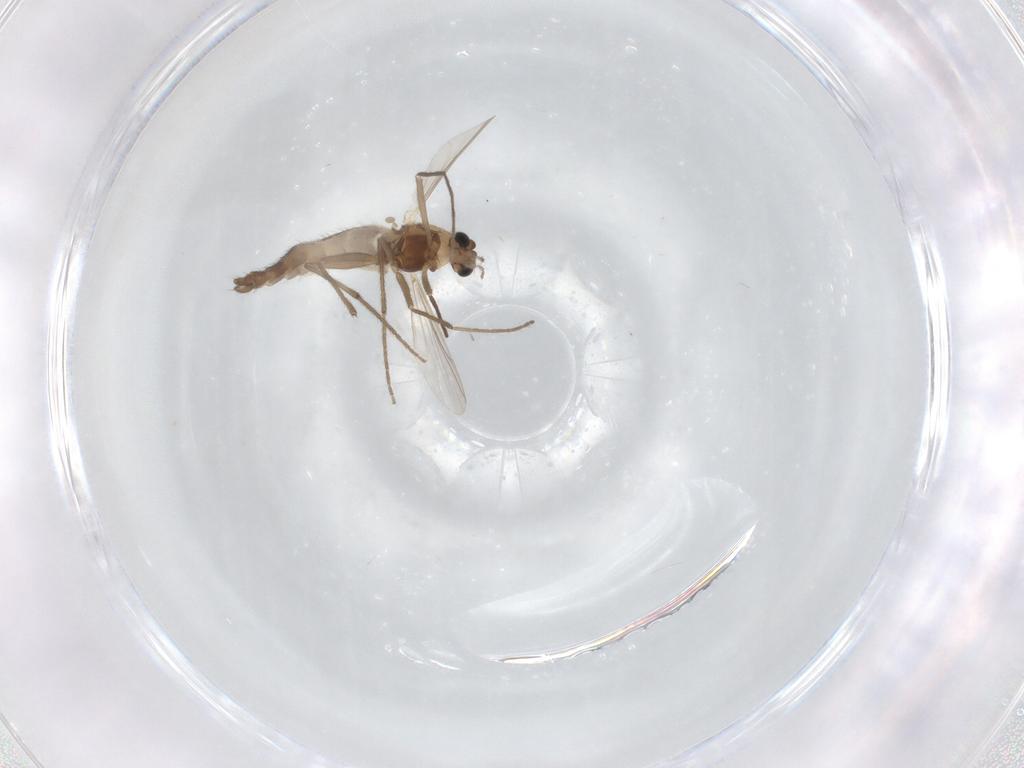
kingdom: Animalia
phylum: Arthropoda
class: Insecta
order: Diptera
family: Chironomidae
